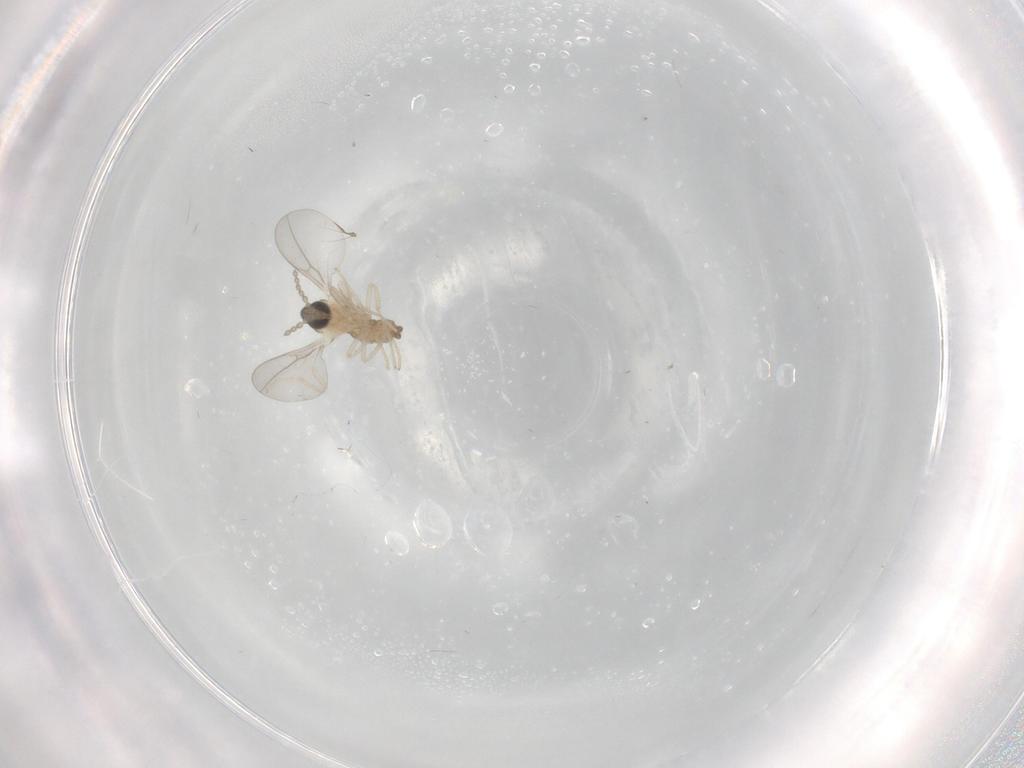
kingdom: Animalia
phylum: Arthropoda
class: Insecta
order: Diptera
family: Cecidomyiidae
